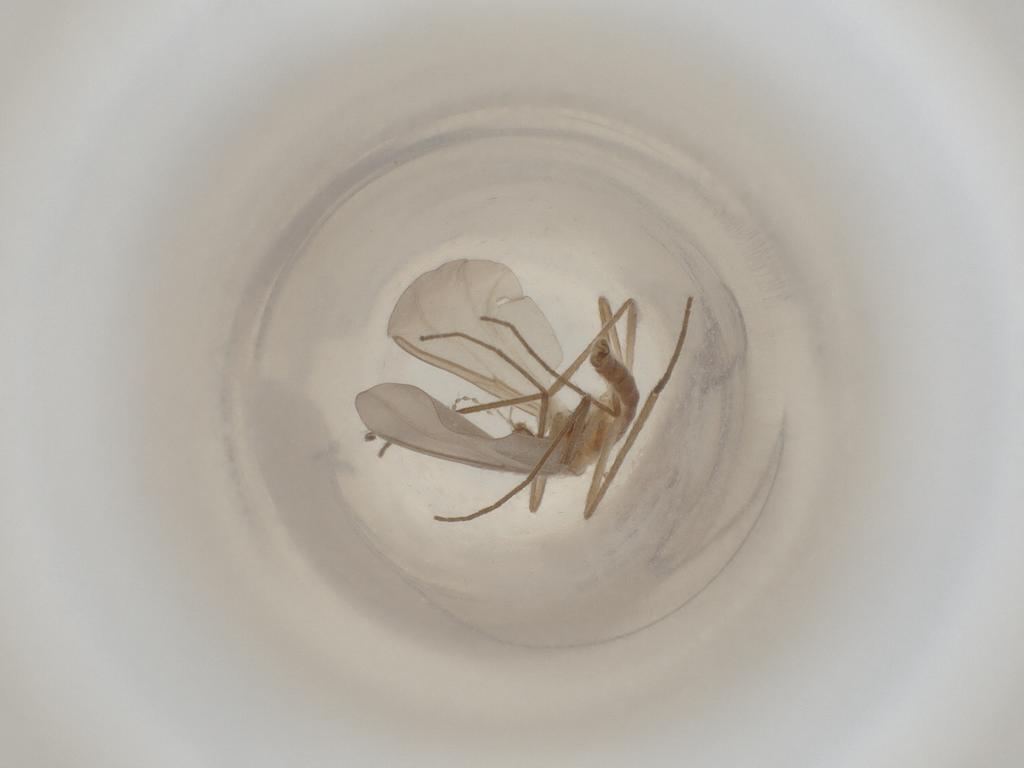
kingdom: Animalia
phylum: Arthropoda
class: Insecta
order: Diptera
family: Cecidomyiidae
